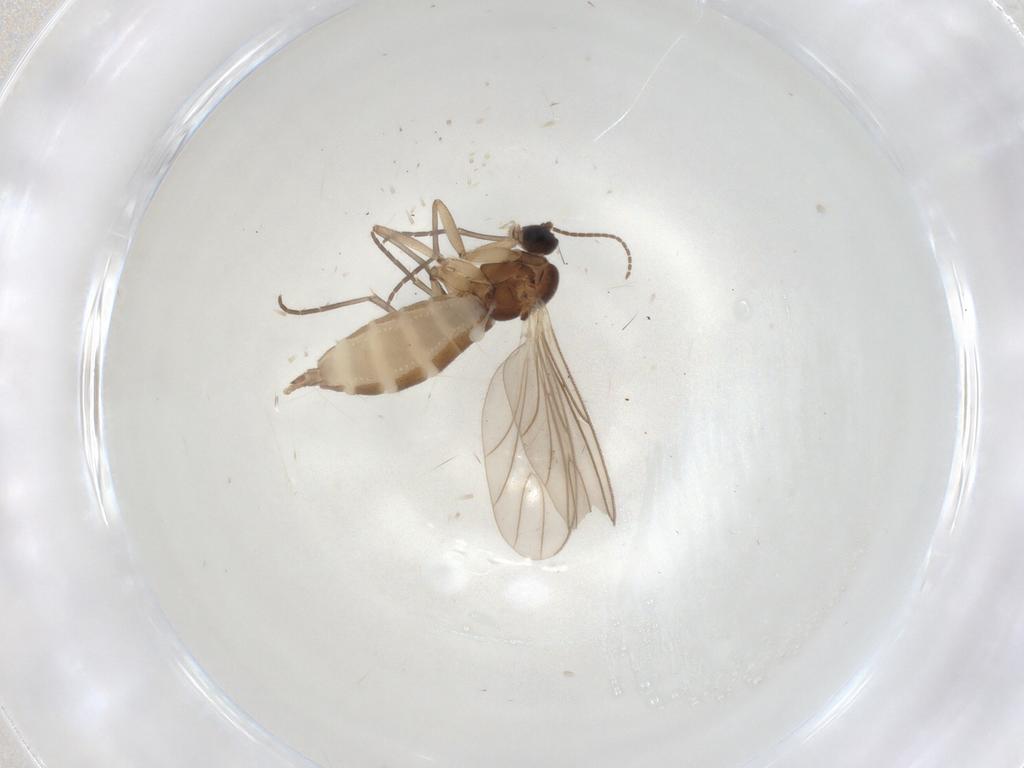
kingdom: Animalia
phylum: Arthropoda
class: Insecta
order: Diptera
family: Sciaridae
